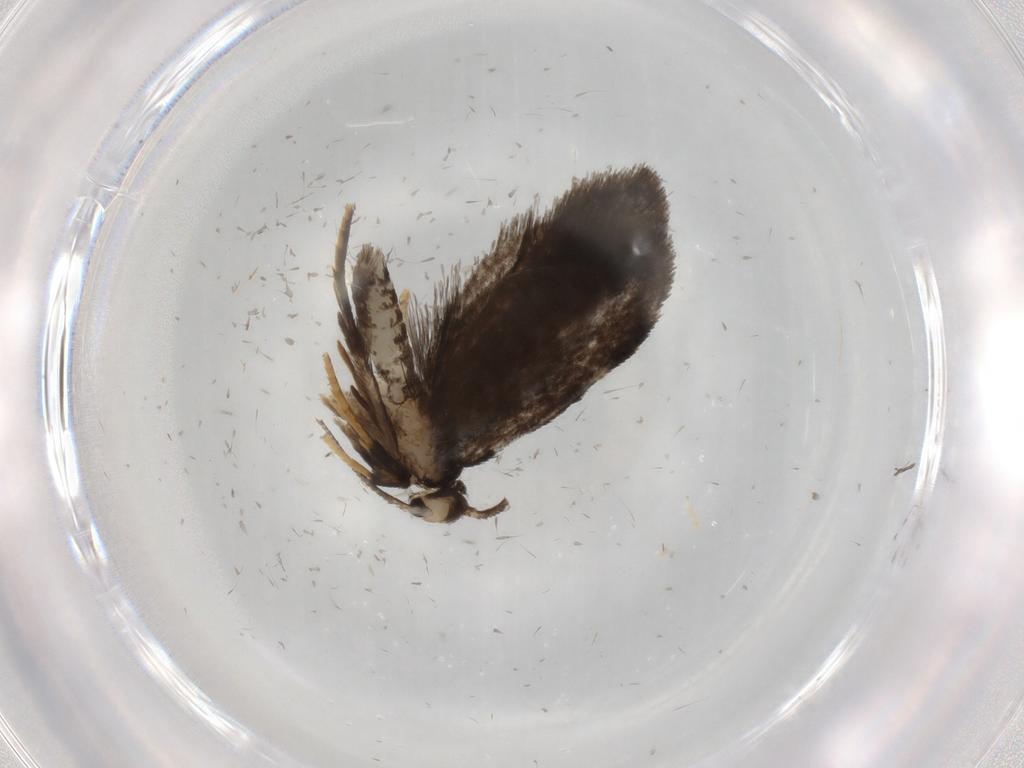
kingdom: Animalia
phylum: Arthropoda
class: Insecta
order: Lepidoptera
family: Psychidae
